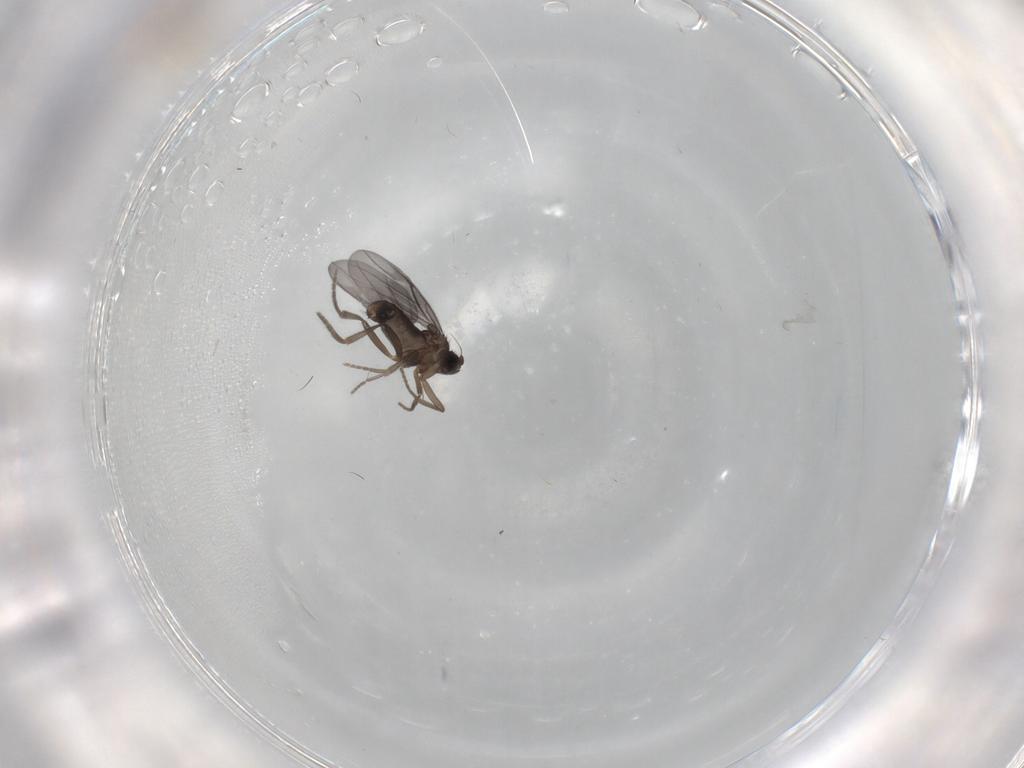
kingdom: Animalia
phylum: Arthropoda
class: Insecta
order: Diptera
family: Phoridae
